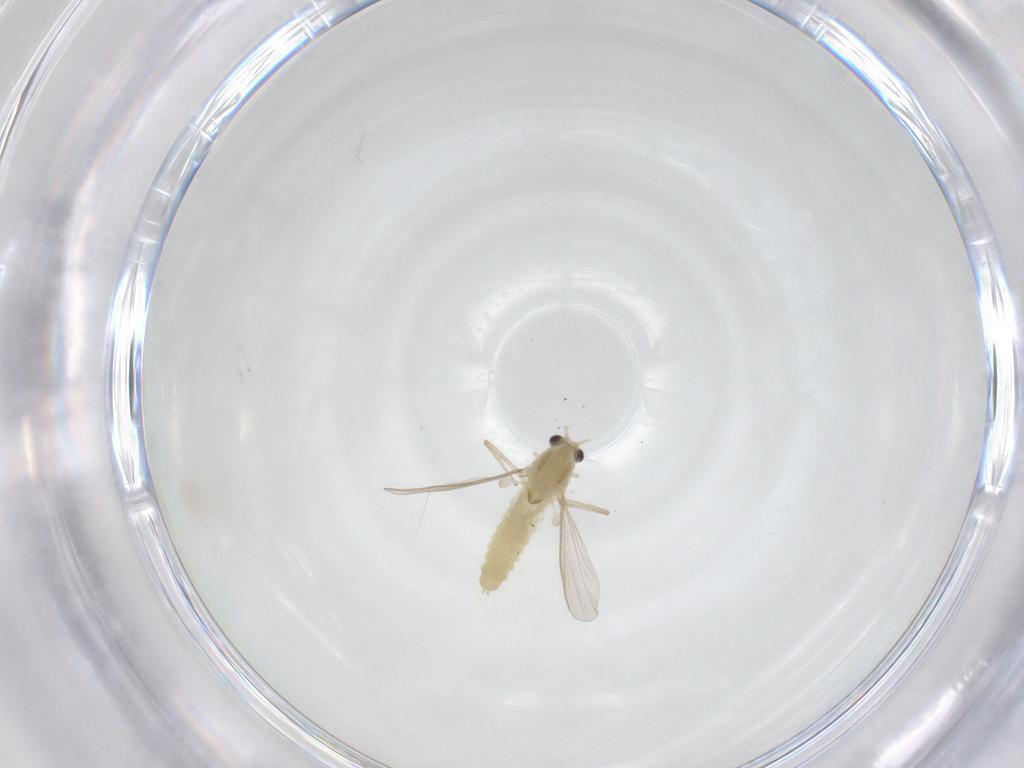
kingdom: Animalia
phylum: Arthropoda
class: Insecta
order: Diptera
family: Chironomidae
